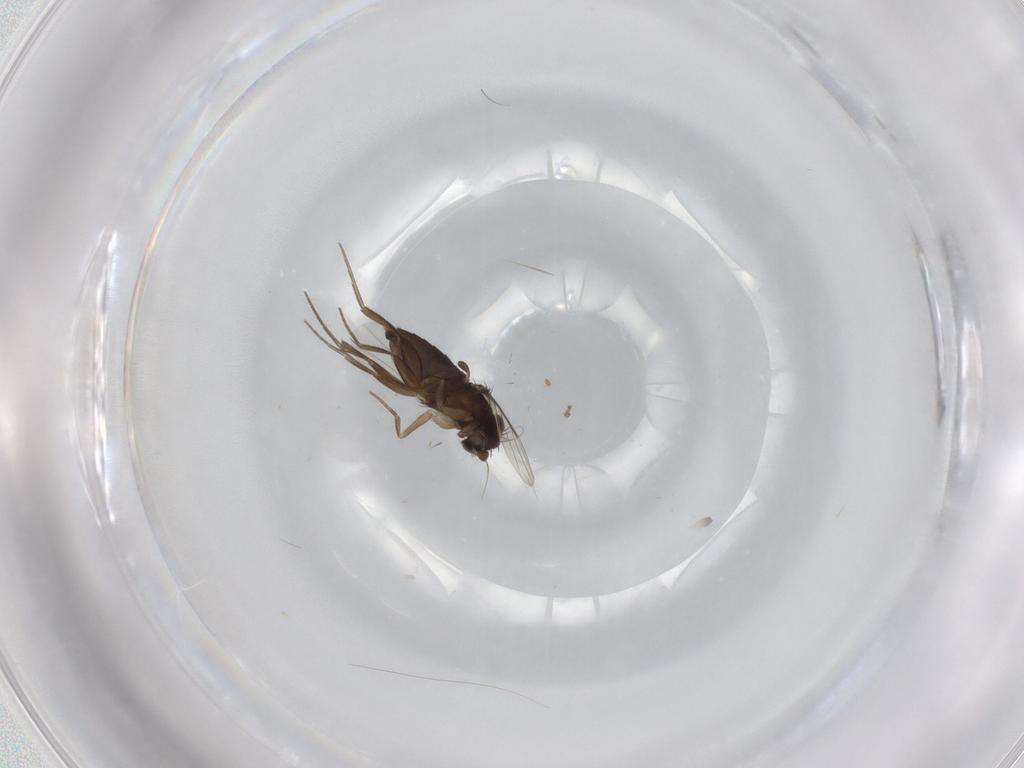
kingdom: Animalia
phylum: Arthropoda
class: Insecta
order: Diptera
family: Phoridae
